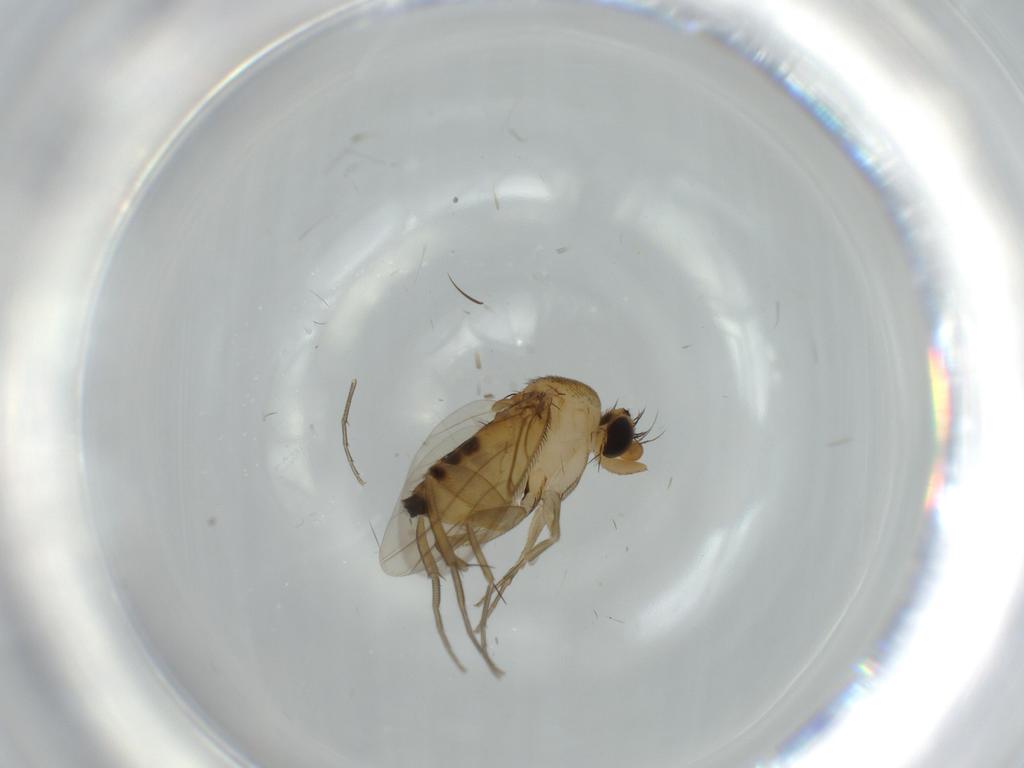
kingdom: Animalia
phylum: Arthropoda
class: Insecta
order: Diptera
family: Phoridae
